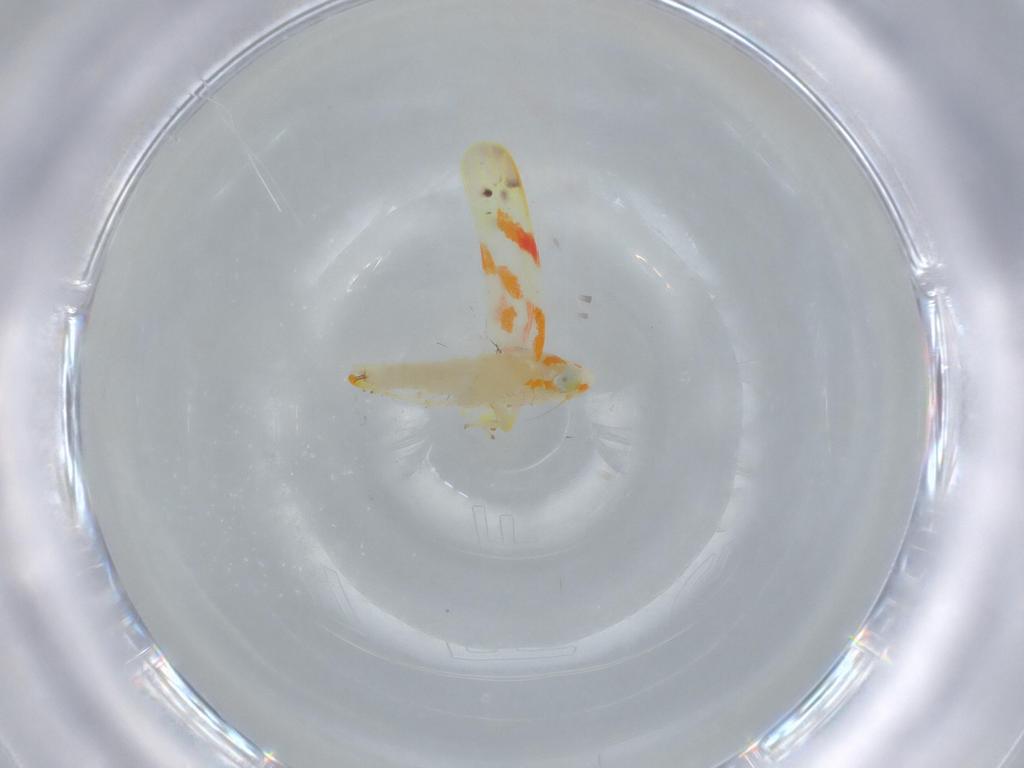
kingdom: Animalia
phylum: Arthropoda
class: Insecta
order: Hemiptera
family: Cicadellidae
